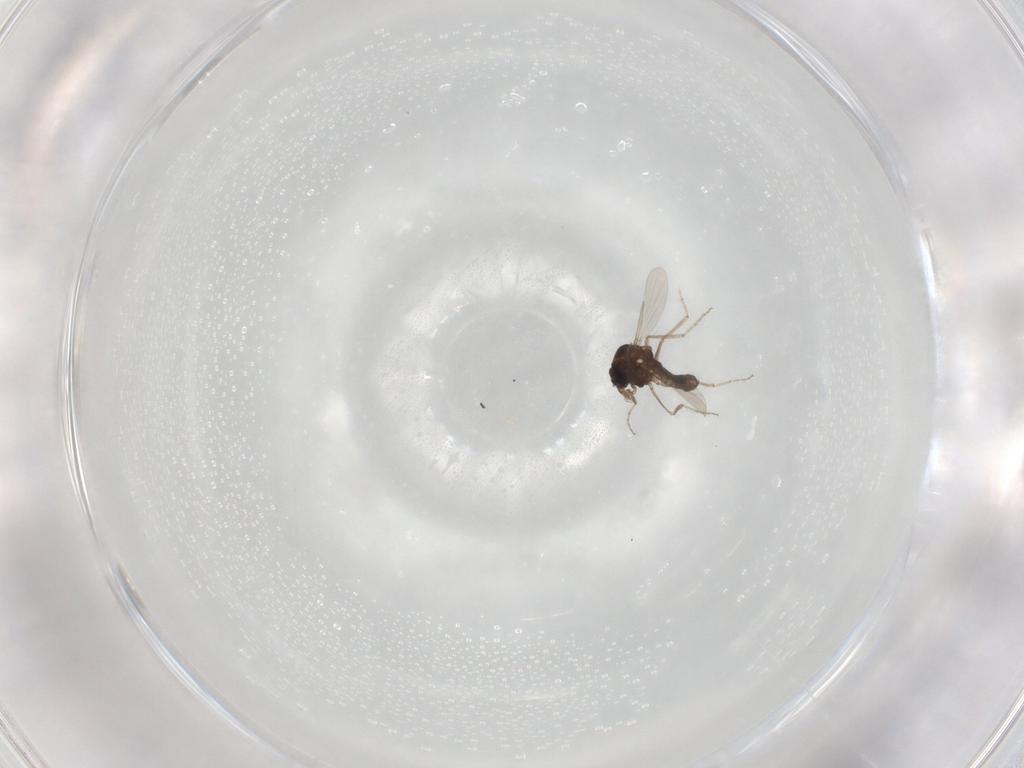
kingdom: Animalia
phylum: Arthropoda
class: Insecta
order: Diptera
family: Psychodidae
